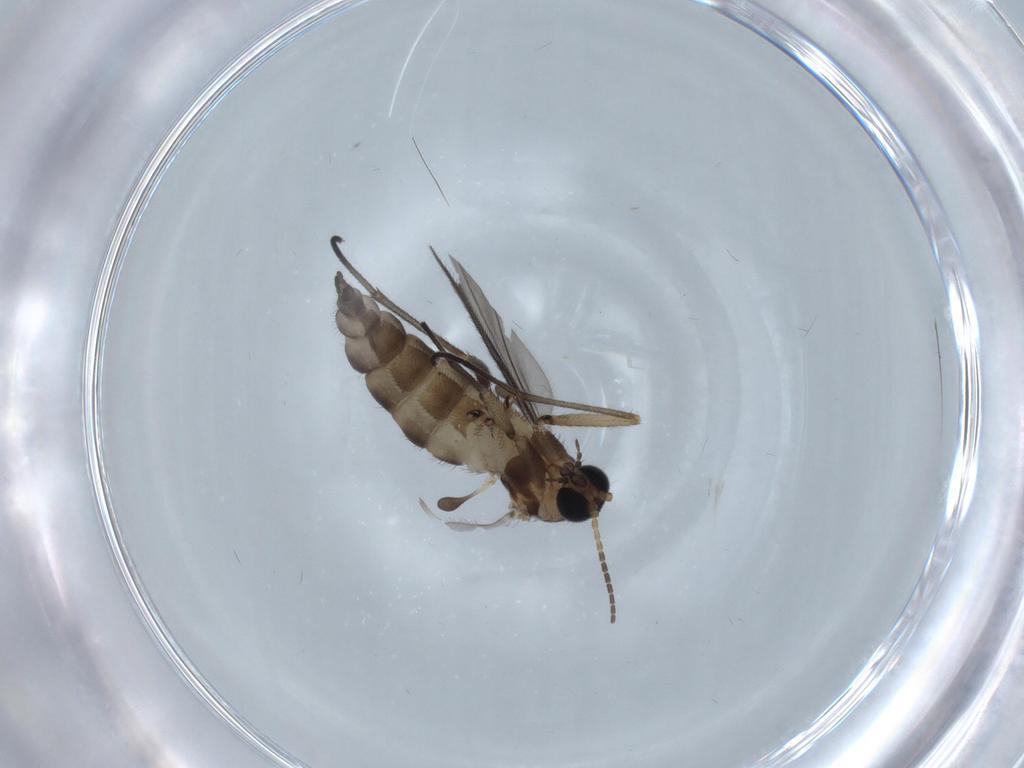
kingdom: Animalia
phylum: Arthropoda
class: Insecta
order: Diptera
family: Sciaridae
